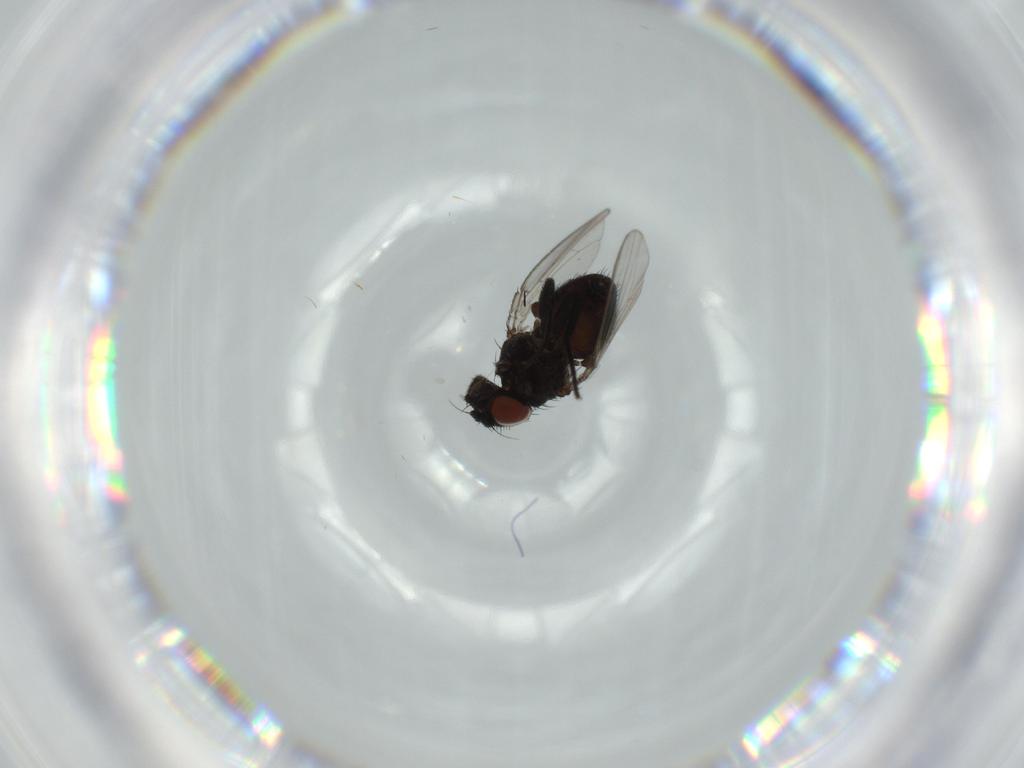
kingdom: Animalia
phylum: Arthropoda
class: Insecta
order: Diptera
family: Milichiidae
